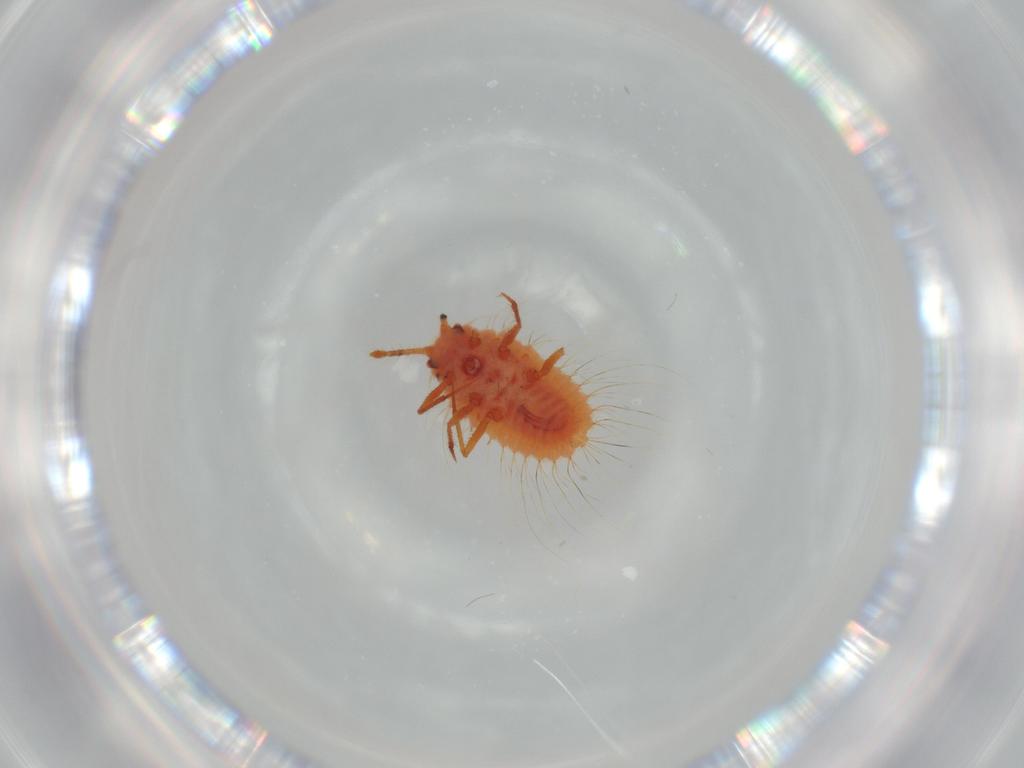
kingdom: Animalia
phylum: Arthropoda
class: Insecta
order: Hemiptera
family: Coccoidea_incertae_sedis
